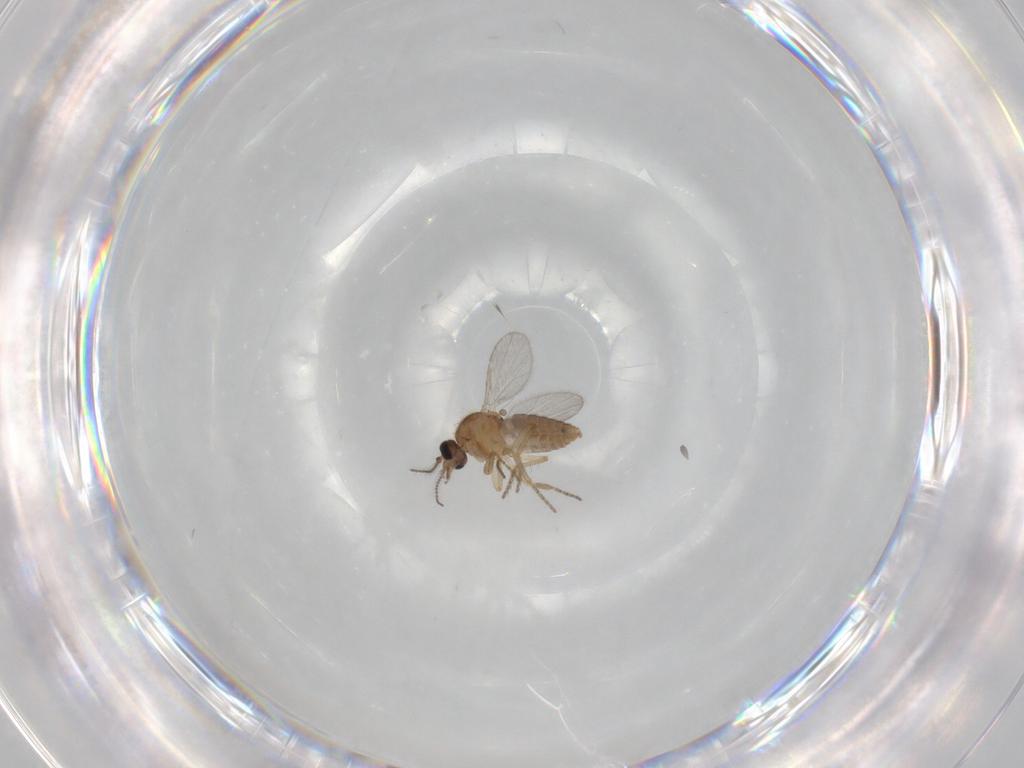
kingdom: Animalia
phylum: Arthropoda
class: Insecta
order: Diptera
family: Ceratopogonidae
